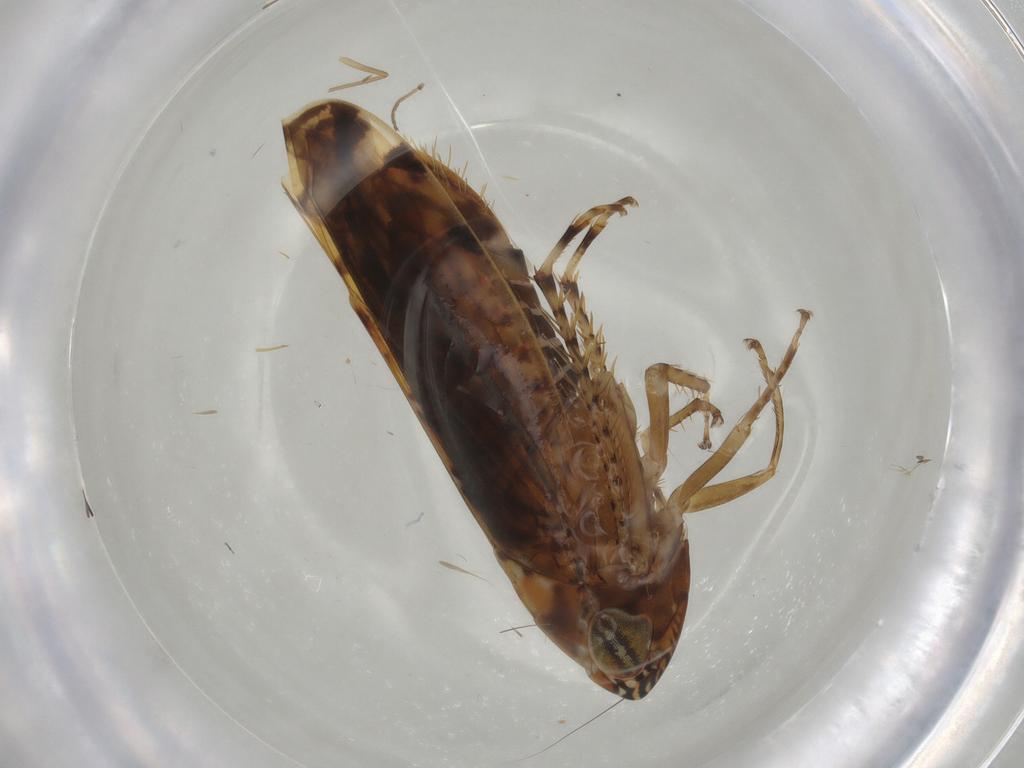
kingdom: Animalia
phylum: Arthropoda
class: Insecta
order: Hemiptera
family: Cicadellidae
